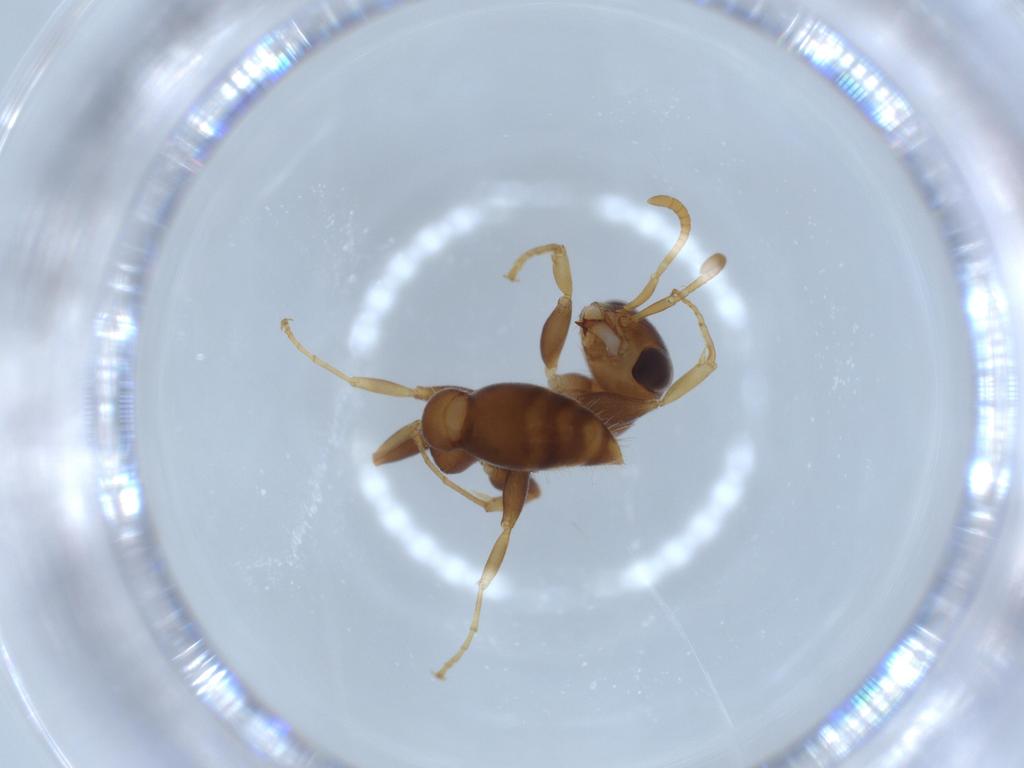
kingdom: Animalia
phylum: Arthropoda
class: Insecta
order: Hymenoptera
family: Formicidae
